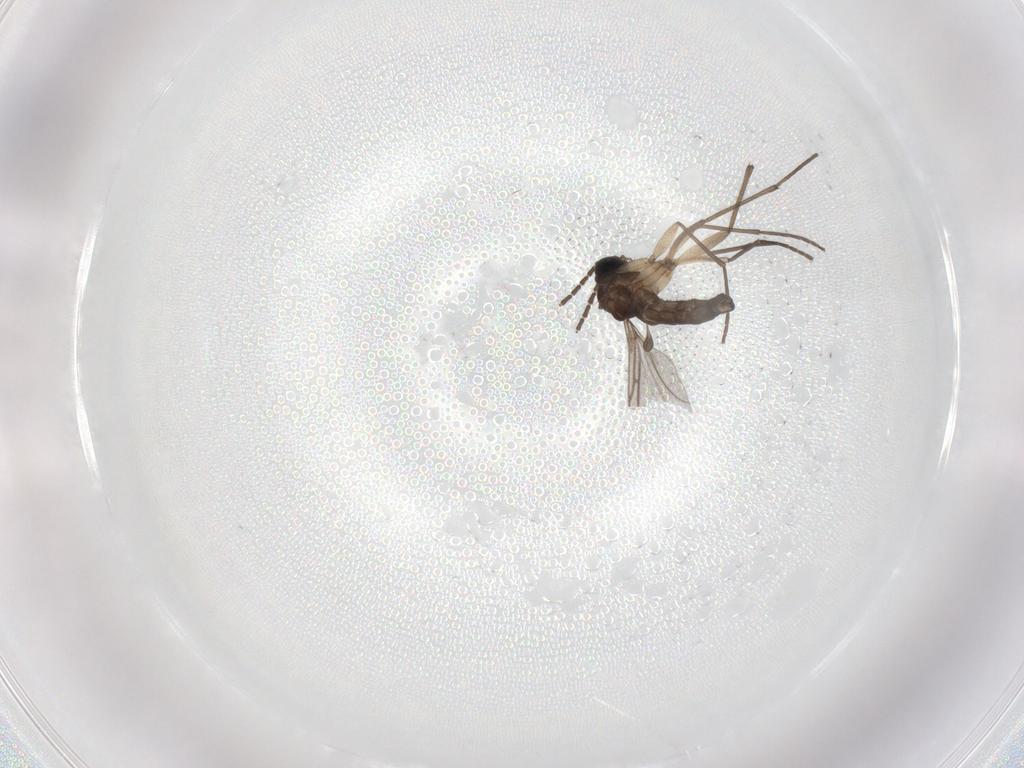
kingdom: Animalia
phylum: Arthropoda
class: Insecta
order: Diptera
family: Sciaridae
